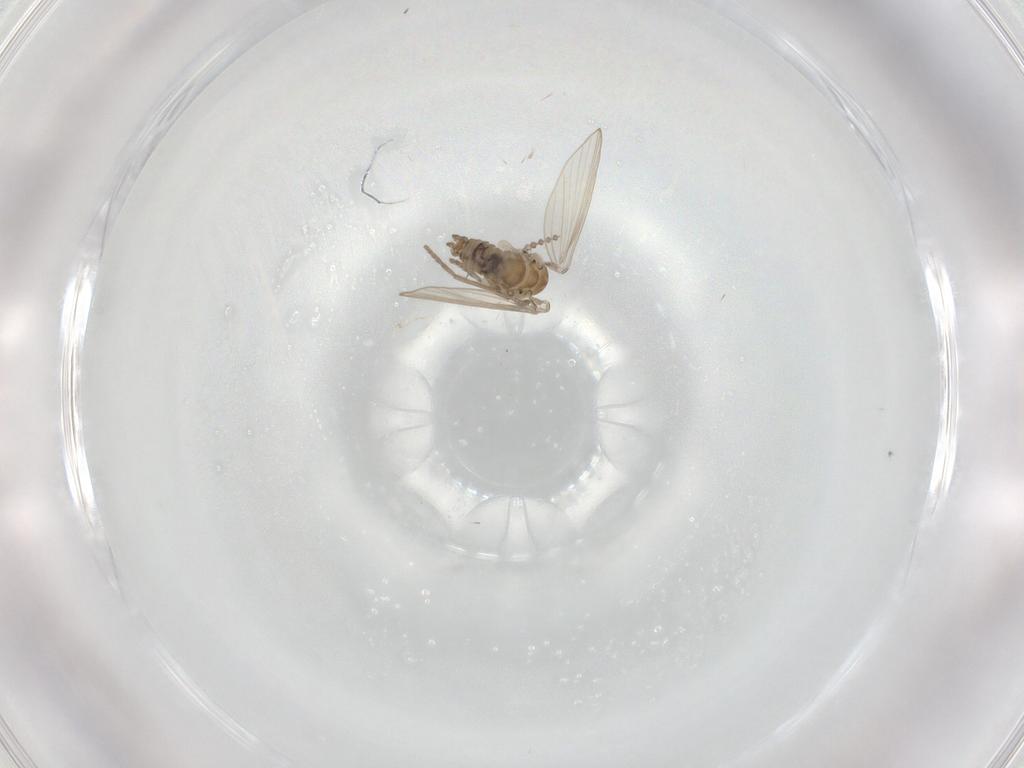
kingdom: Animalia
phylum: Arthropoda
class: Insecta
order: Diptera
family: Psychodidae
